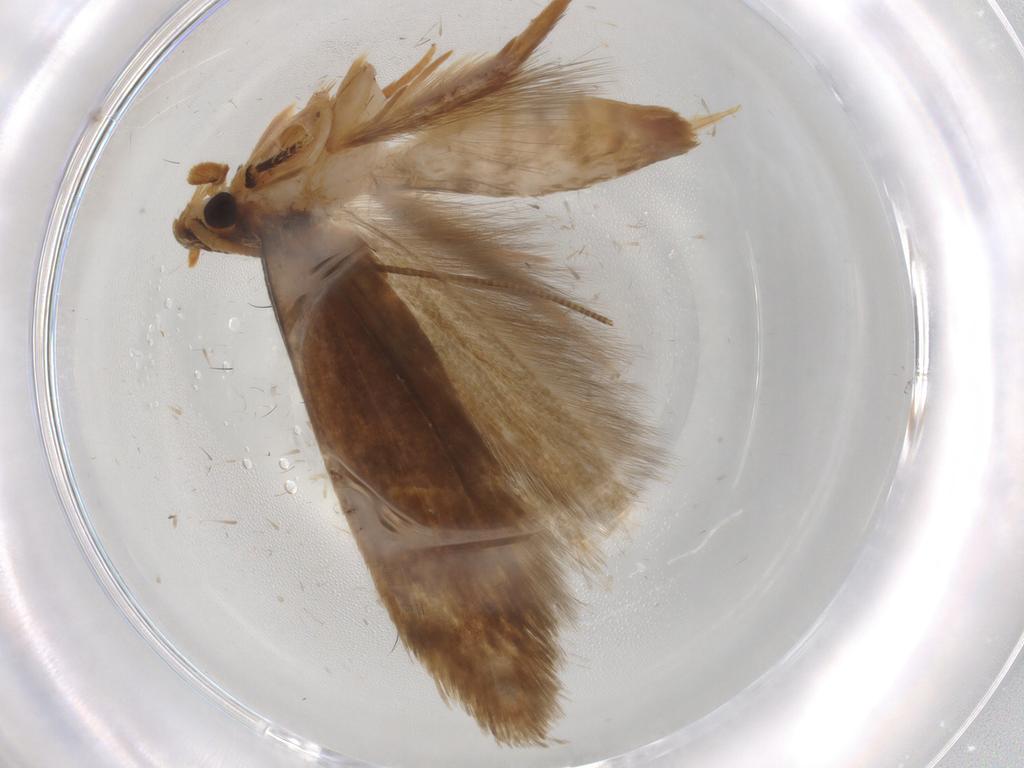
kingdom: Animalia
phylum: Arthropoda
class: Insecta
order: Lepidoptera
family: Tineidae
